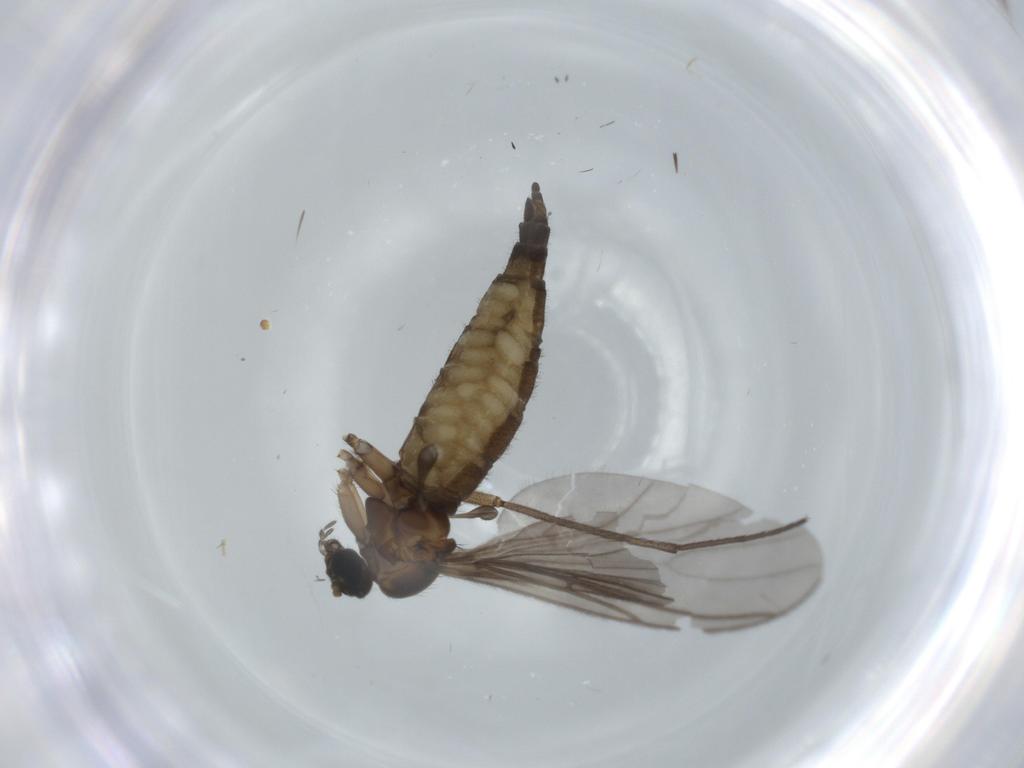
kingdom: Animalia
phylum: Arthropoda
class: Insecta
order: Diptera
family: Sciaridae
